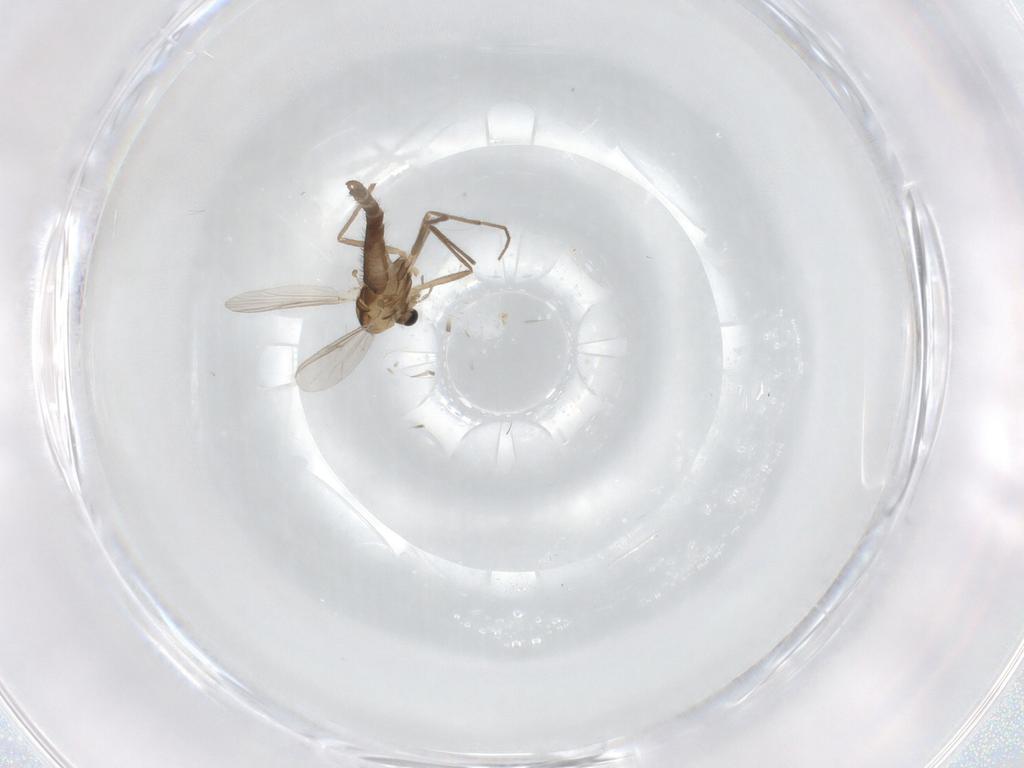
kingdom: Animalia
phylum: Arthropoda
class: Insecta
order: Diptera
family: Chironomidae
